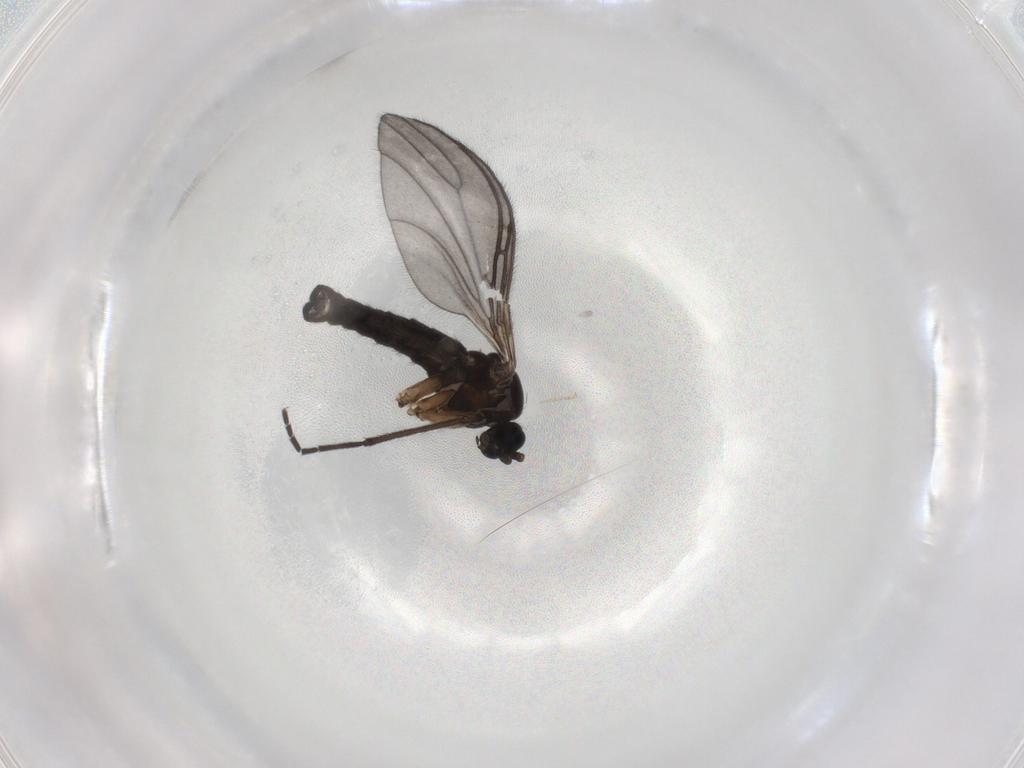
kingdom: Animalia
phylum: Arthropoda
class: Insecta
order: Diptera
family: Sciaridae
